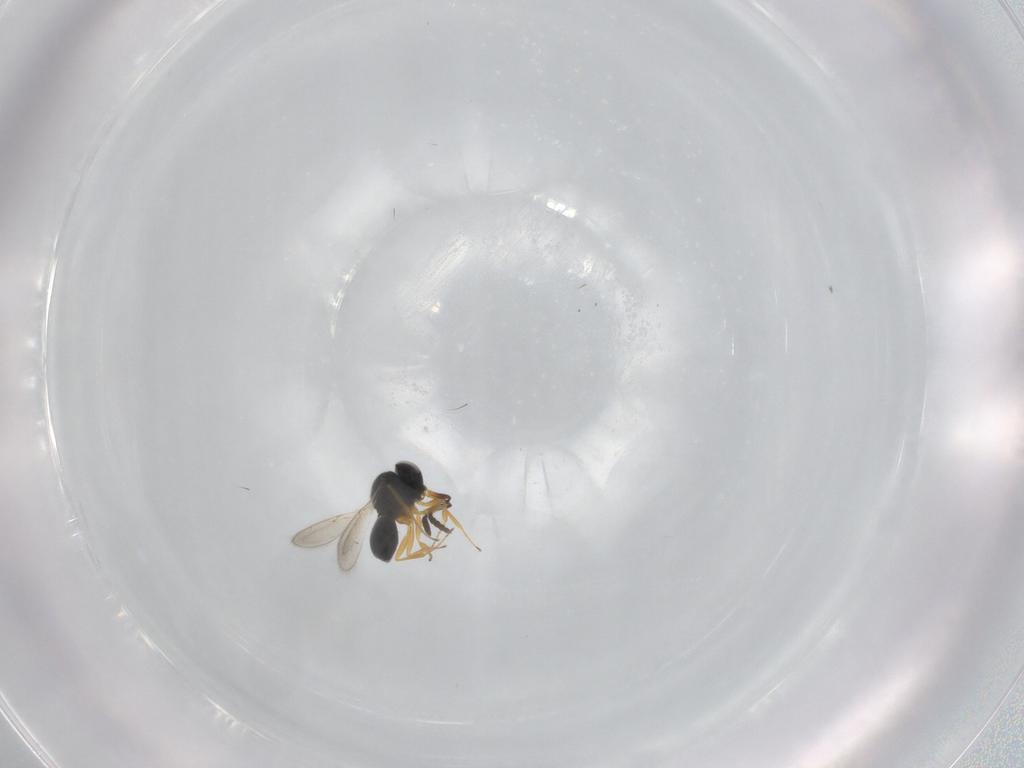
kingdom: Animalia
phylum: Arthropoda
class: Insecta
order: Hymenoptera
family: Scelionidae
